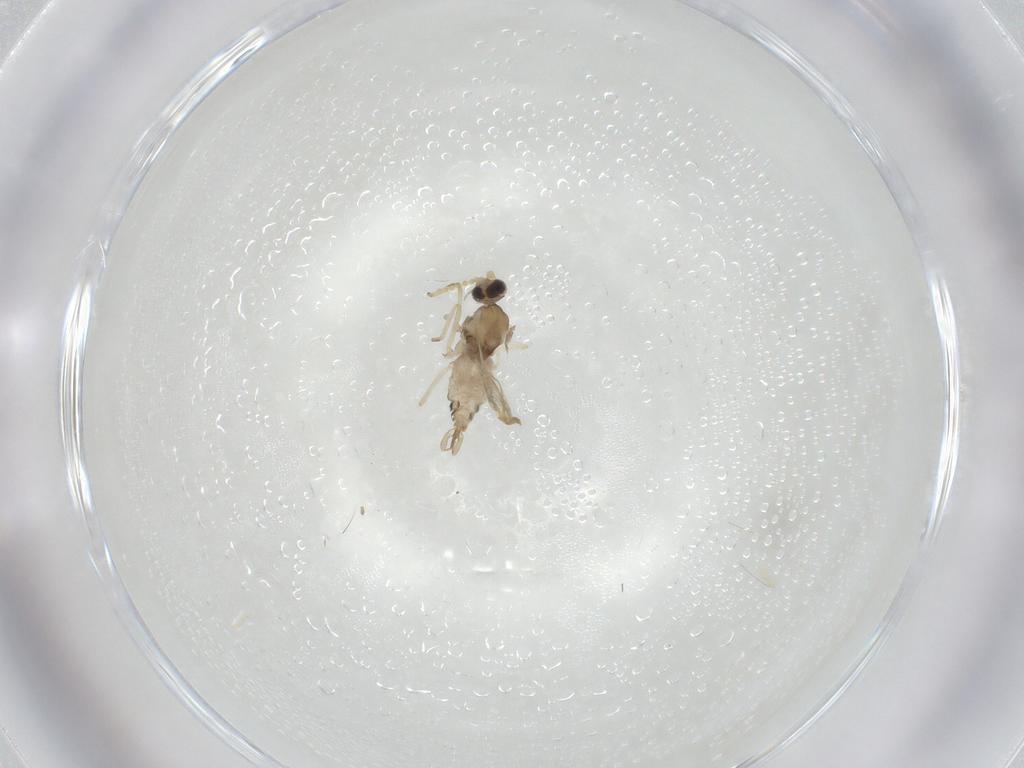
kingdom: Animalia
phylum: Arthropoda
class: Insecta
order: Diptera
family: Cecidomyiidae
